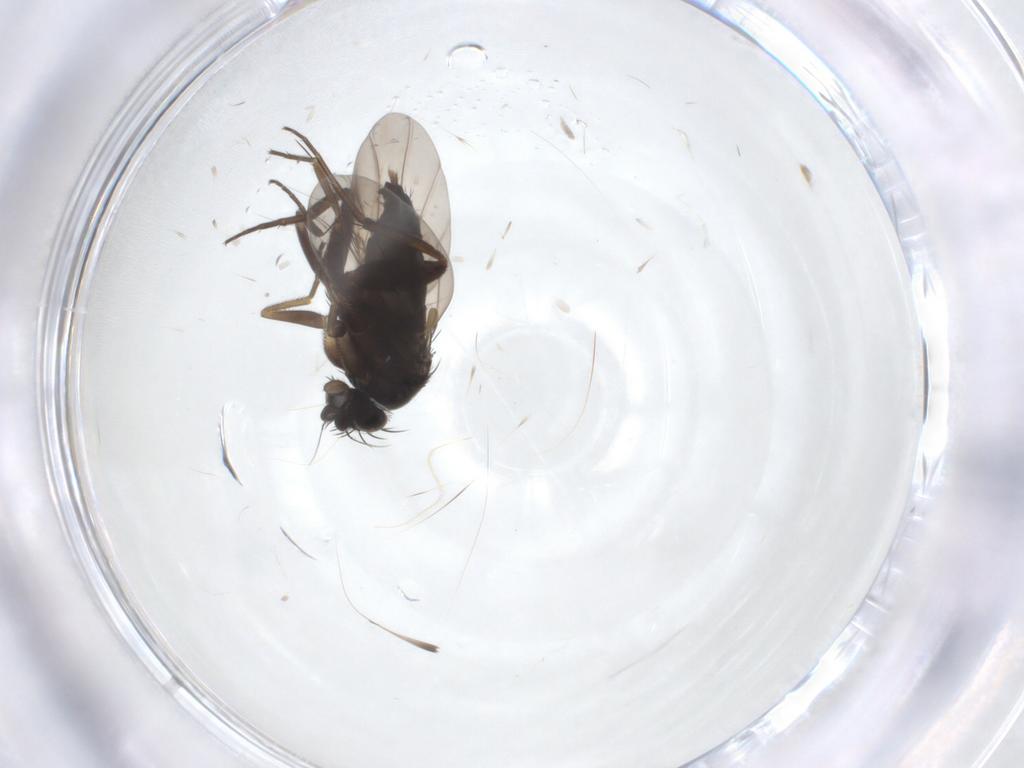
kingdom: Animalia
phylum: Arthropoda
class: Insecta
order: Diptera
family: Phoridae
